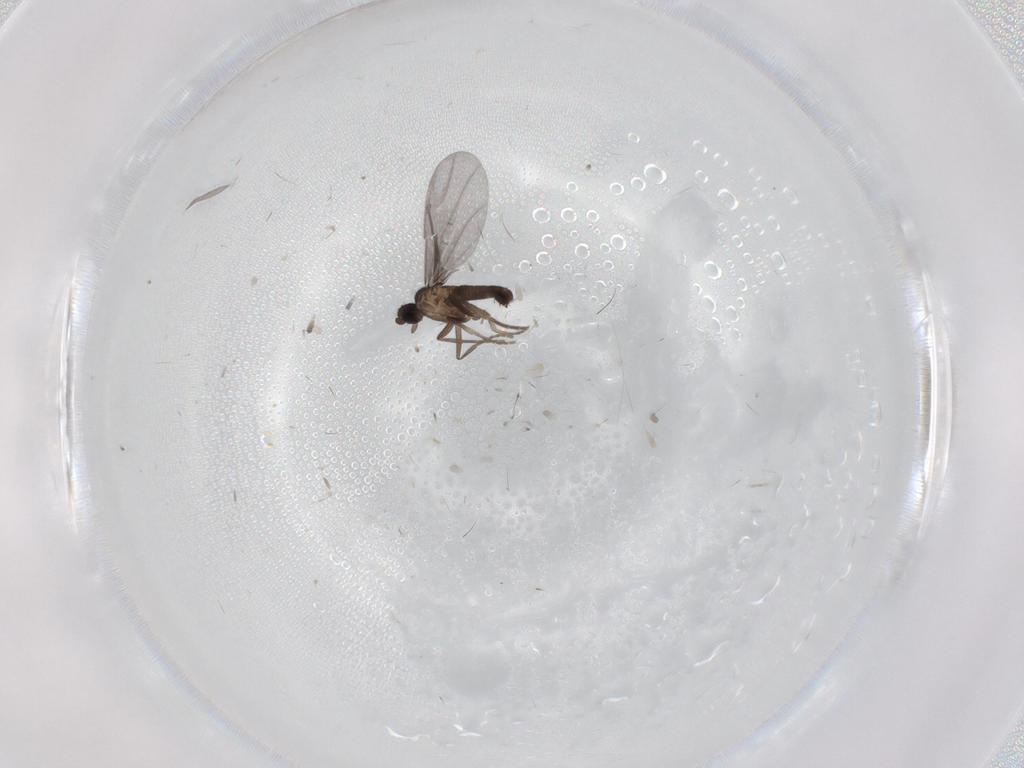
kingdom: Animalia
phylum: Arthropoda
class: Insecta
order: Diptera
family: Phoridae
